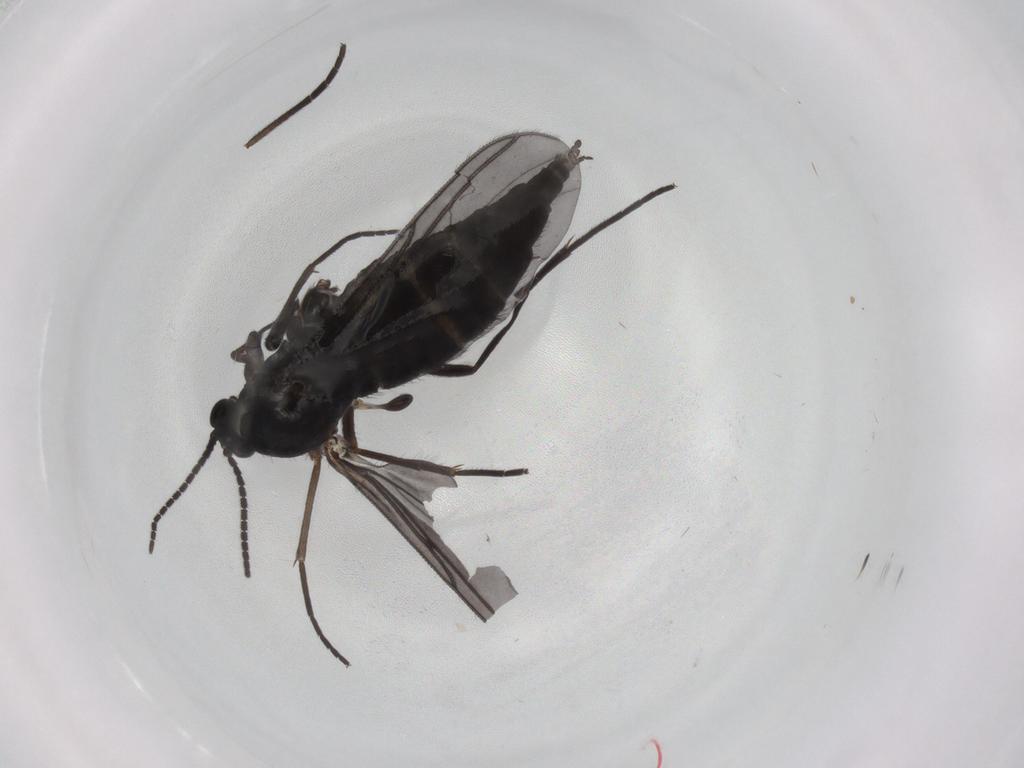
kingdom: Animalia
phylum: Arthropoda
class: Insecta
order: Diptera
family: Sciaridae
